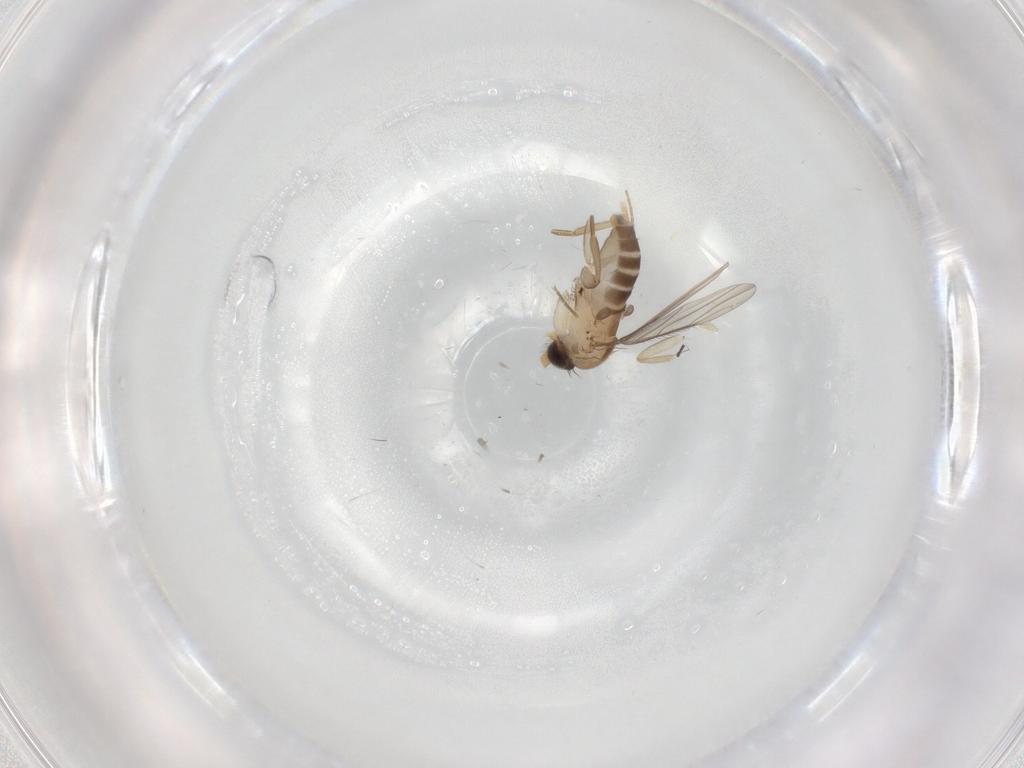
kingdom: Animalia
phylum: Arthropoda
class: Insecta
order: Diptera
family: Phoridae
